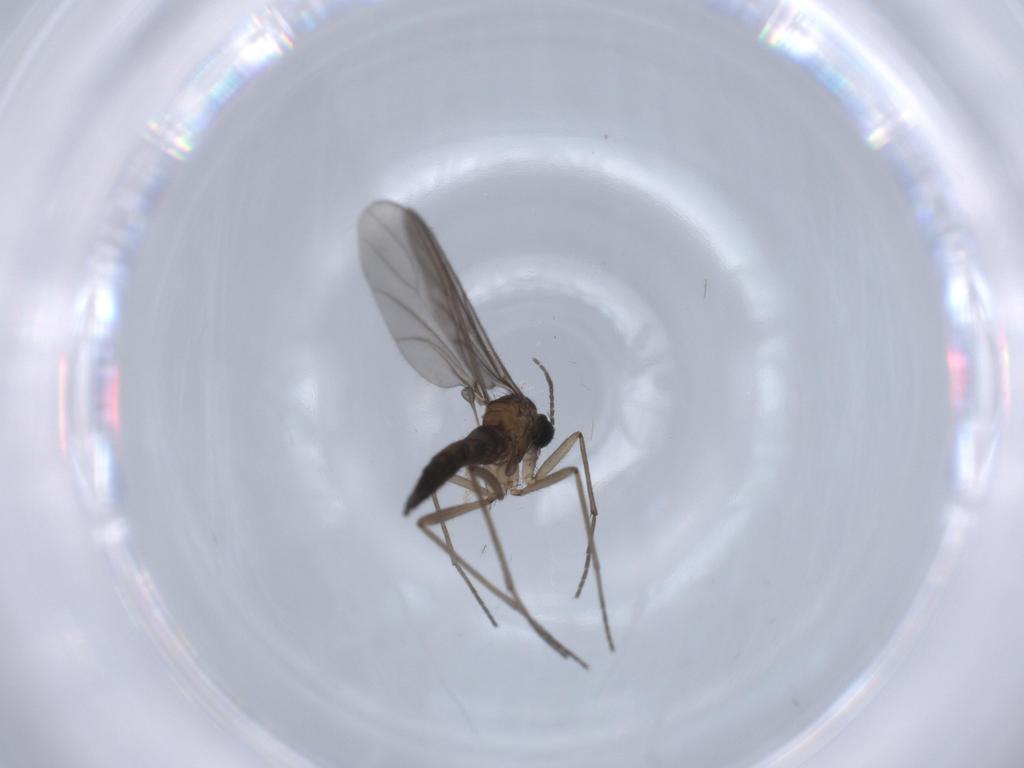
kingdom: Animalia
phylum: Arthropoda
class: Insecta
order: Diptera
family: Sciaridae
